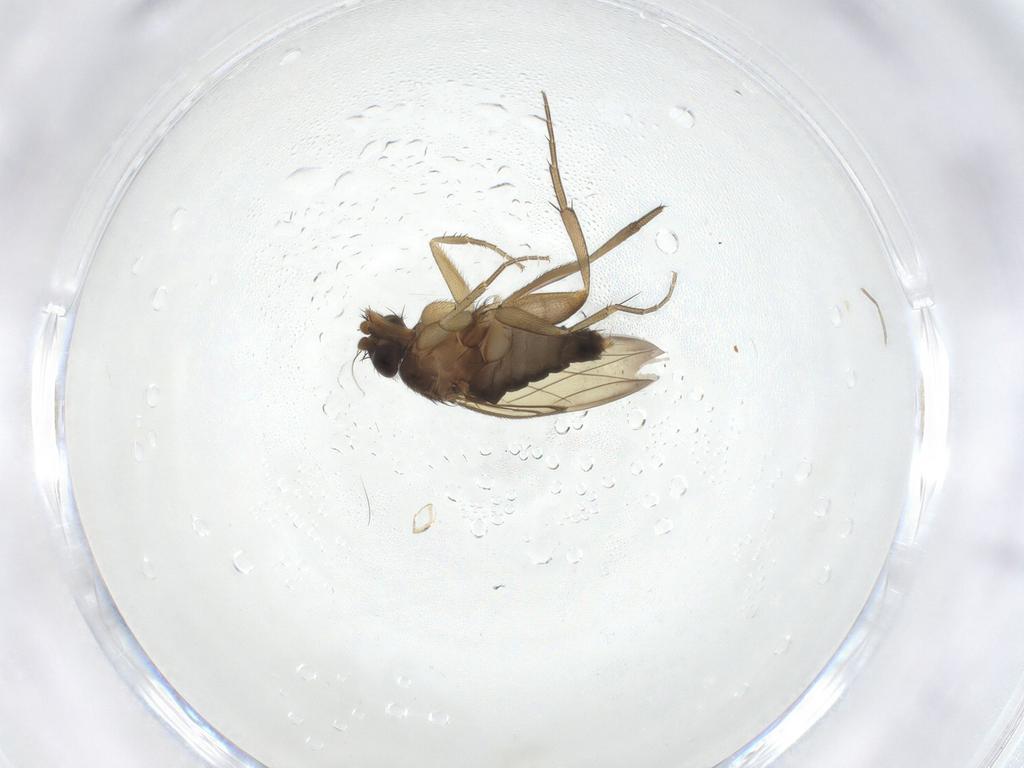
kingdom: Animalia
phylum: Arthropoda
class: Insecta
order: Diptera
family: Phoridae
